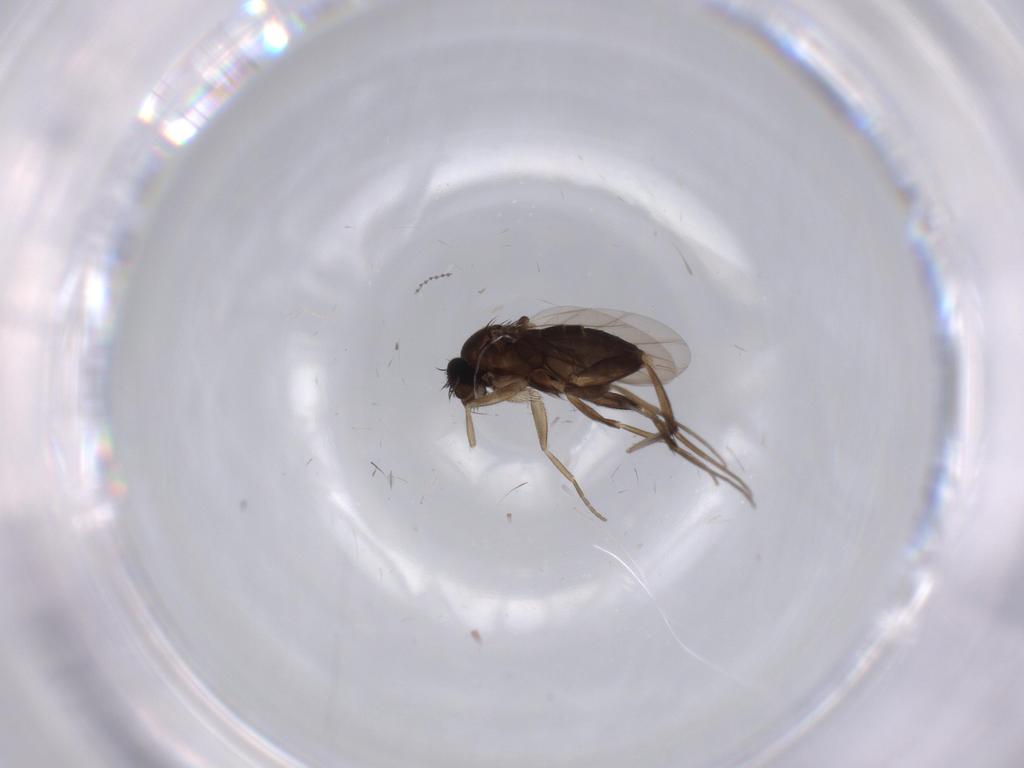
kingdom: Animalia
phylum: Arthropoda
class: Insecta
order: Diptera
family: Phoridae
